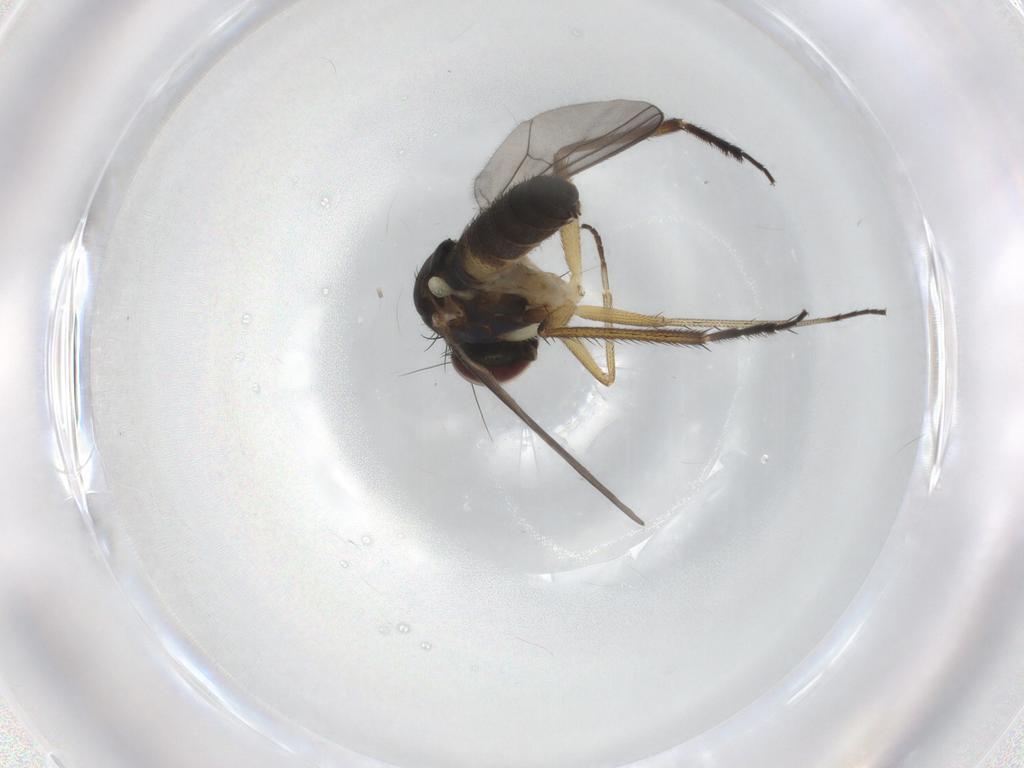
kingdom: Animalia
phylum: Arthropoda
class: Insecta
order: Diptera
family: Dolichopodidae
